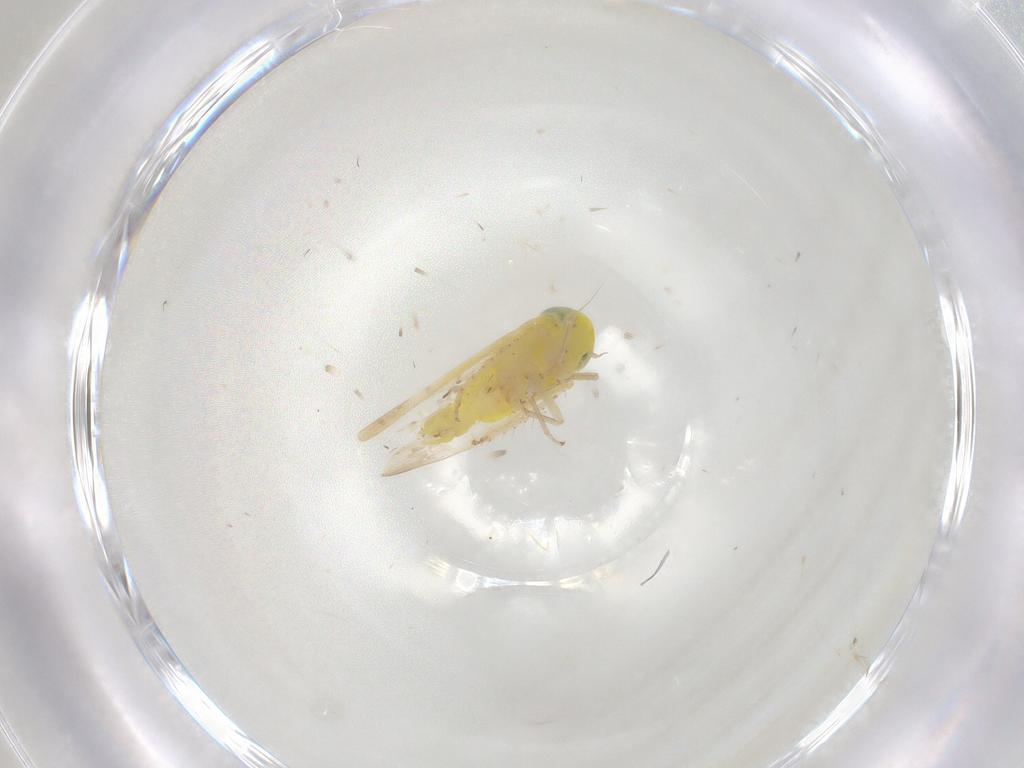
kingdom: Animalia
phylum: Arthropoda
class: Insecta
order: Hemiptera
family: Cicadellidae
